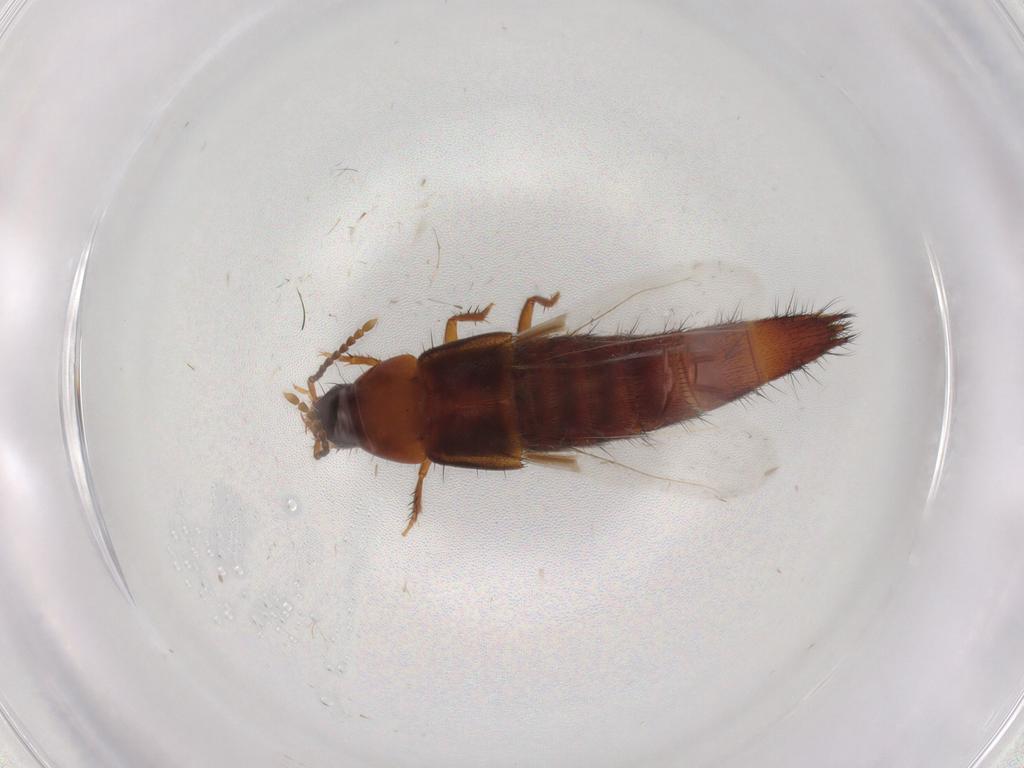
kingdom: Animalia
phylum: Arthropoda
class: Insecta
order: Coleoptera
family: Staphylinidae
